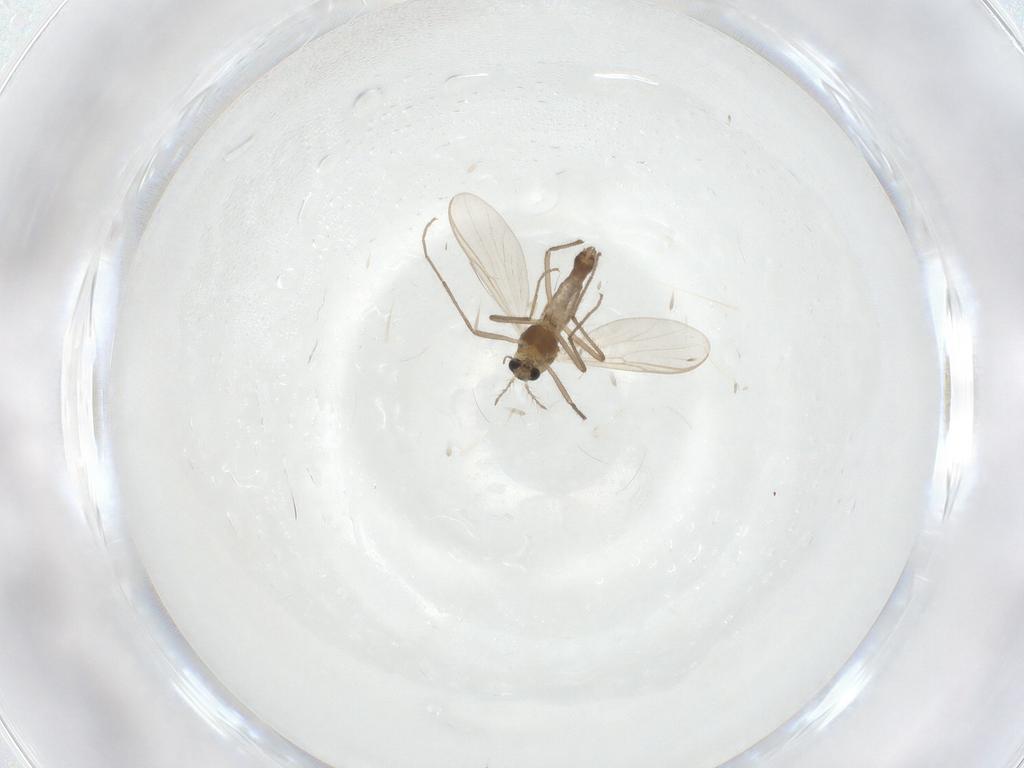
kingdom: Animalia
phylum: Arthropoda
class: Insecta
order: Diptera
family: Chironomidae
